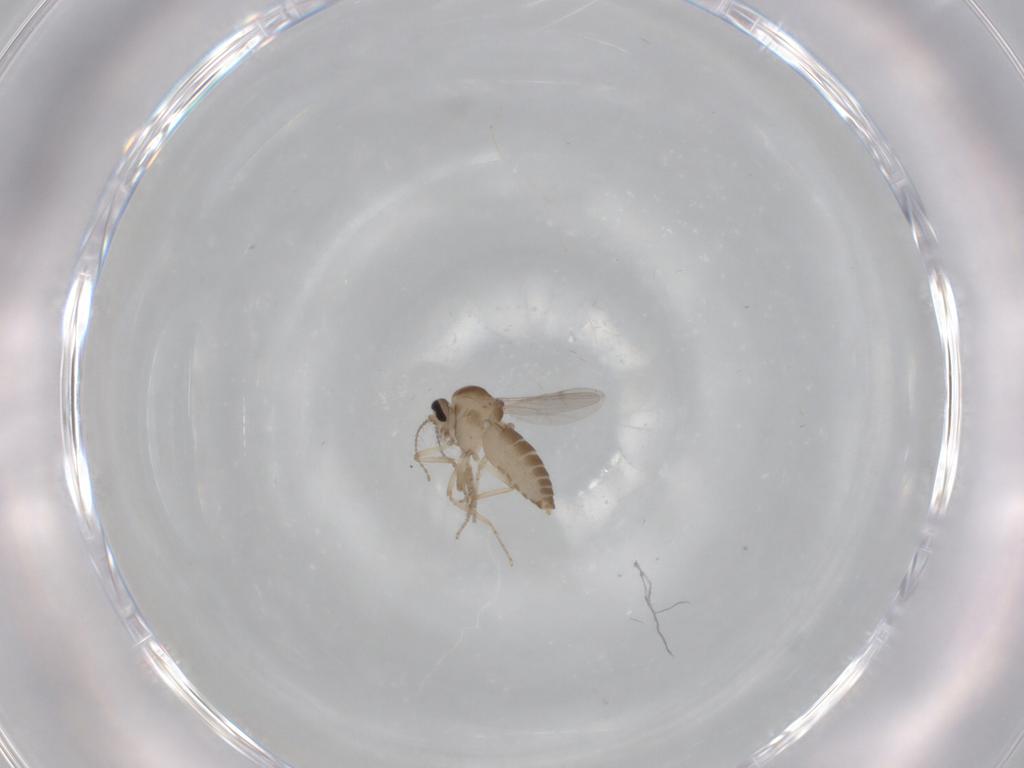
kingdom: Animalia
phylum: Arthropoda
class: Insecta
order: Diptera
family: Ceratopogonidae
